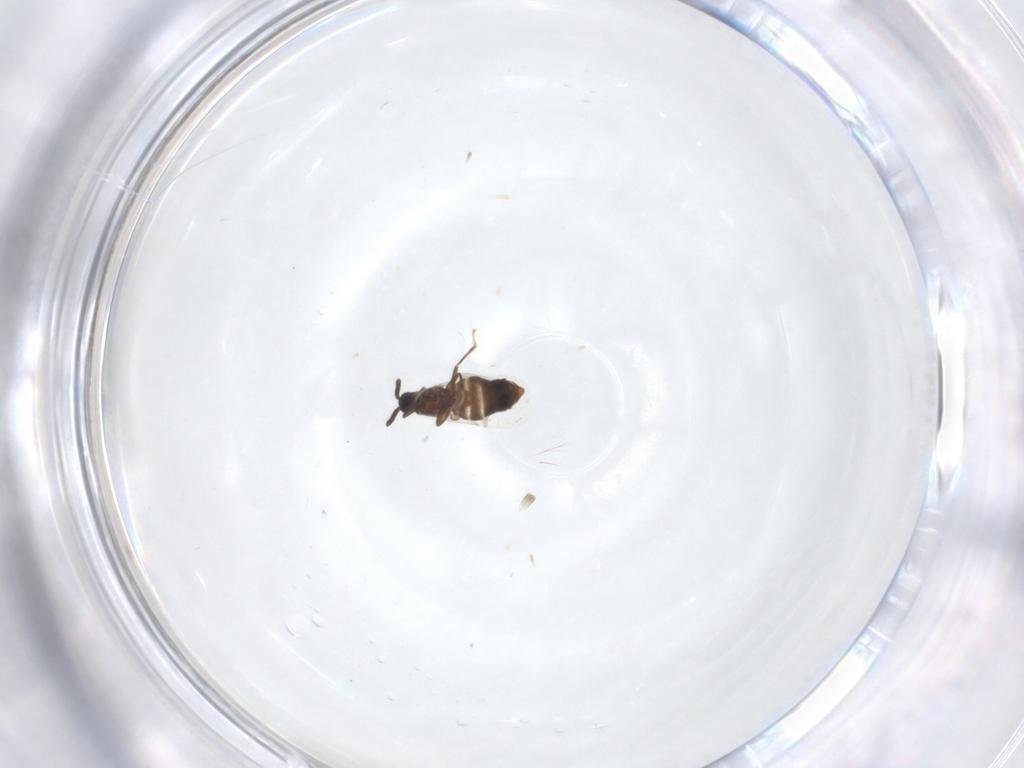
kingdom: Animalia
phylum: Arthropoda
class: Insecta
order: Diptera
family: Scatopsidae
